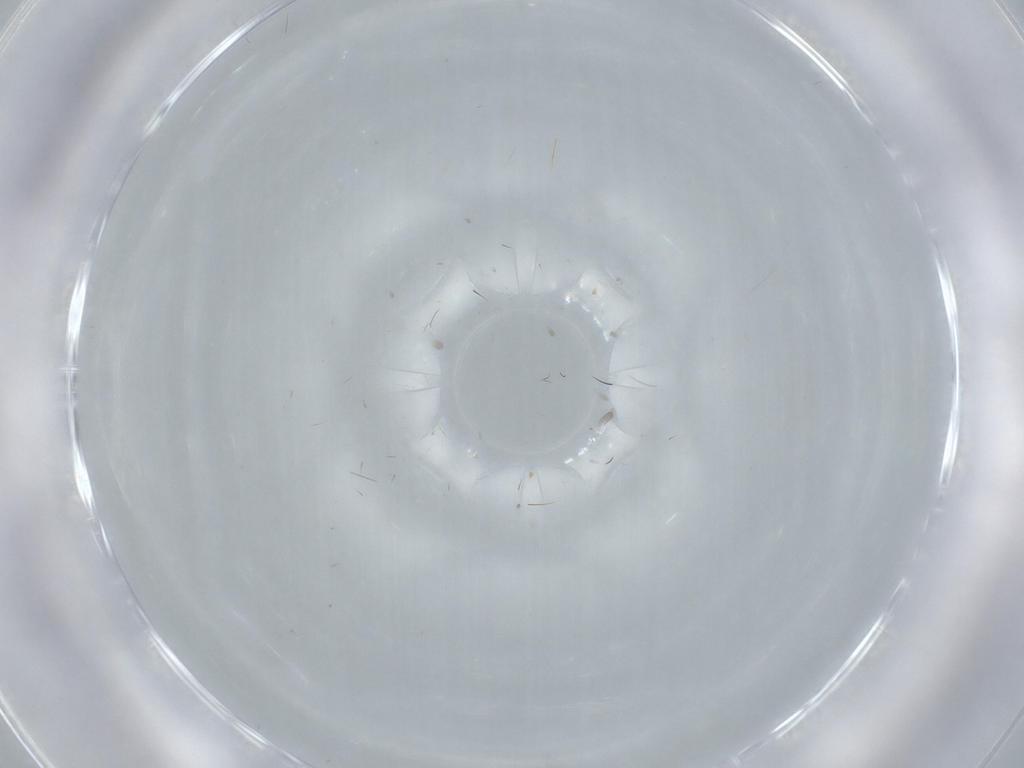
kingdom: Animalia
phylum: Arthropoda
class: Insecta
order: Diptera
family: Cecidomyiidae
